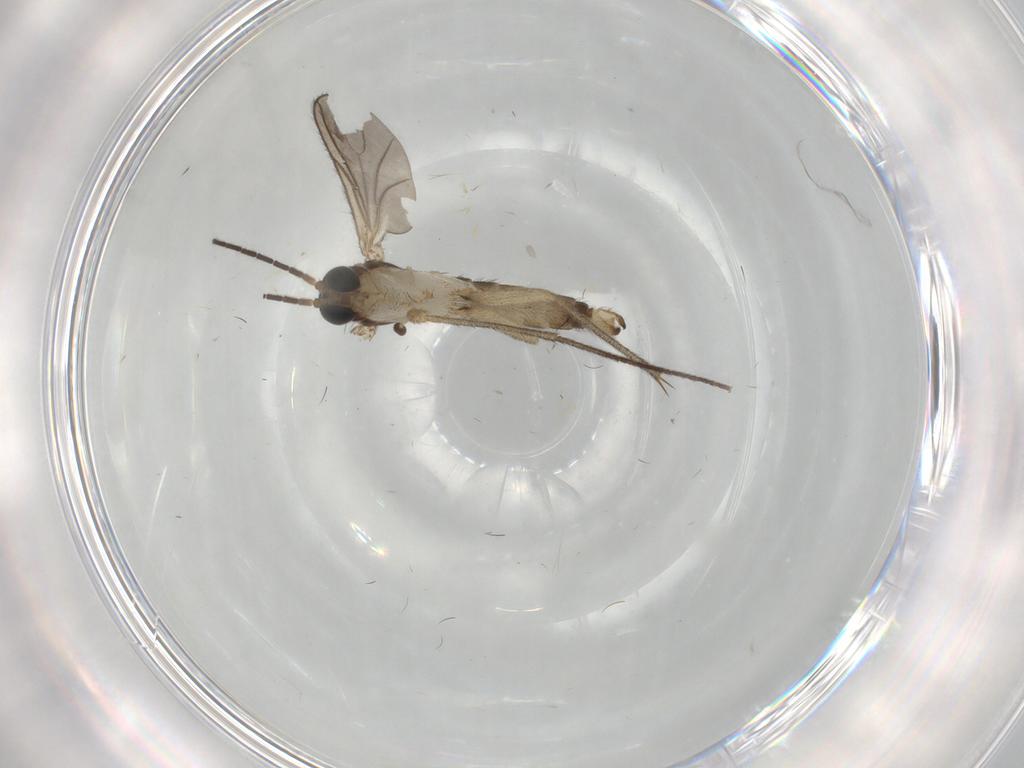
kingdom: Animalia
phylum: Arthropoda
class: Insecta
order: Diptera
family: Sciaridae
